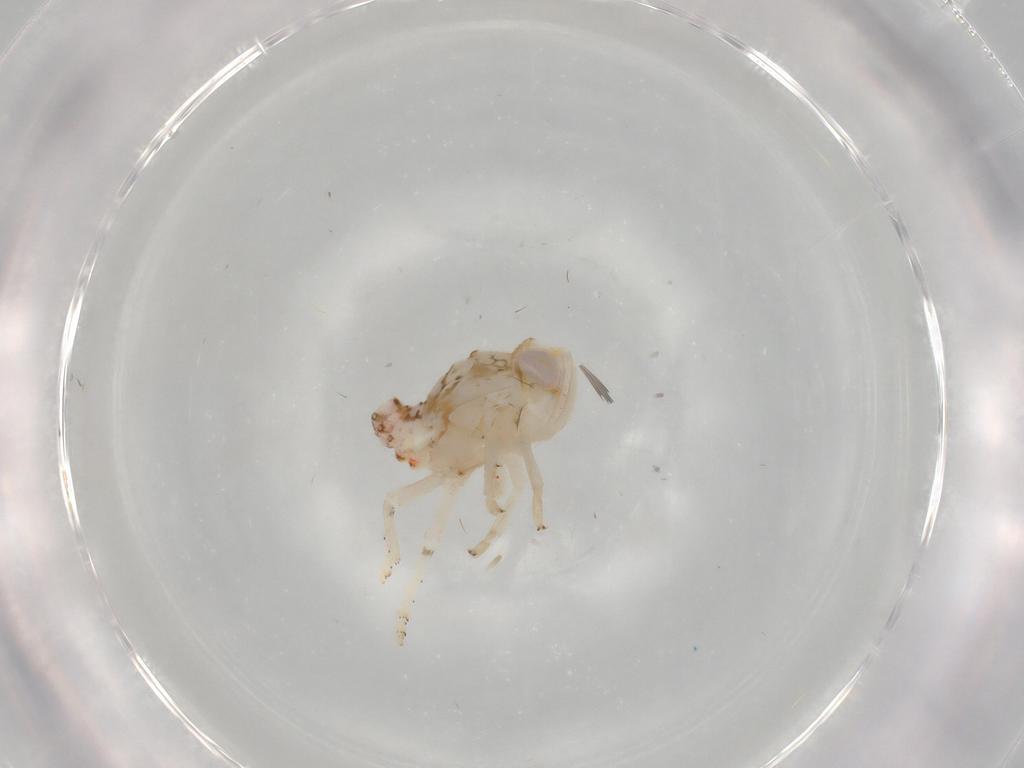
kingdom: Animalia
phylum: Arthropoda
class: Insecta
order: Hemiptera
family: Nogodinidae
